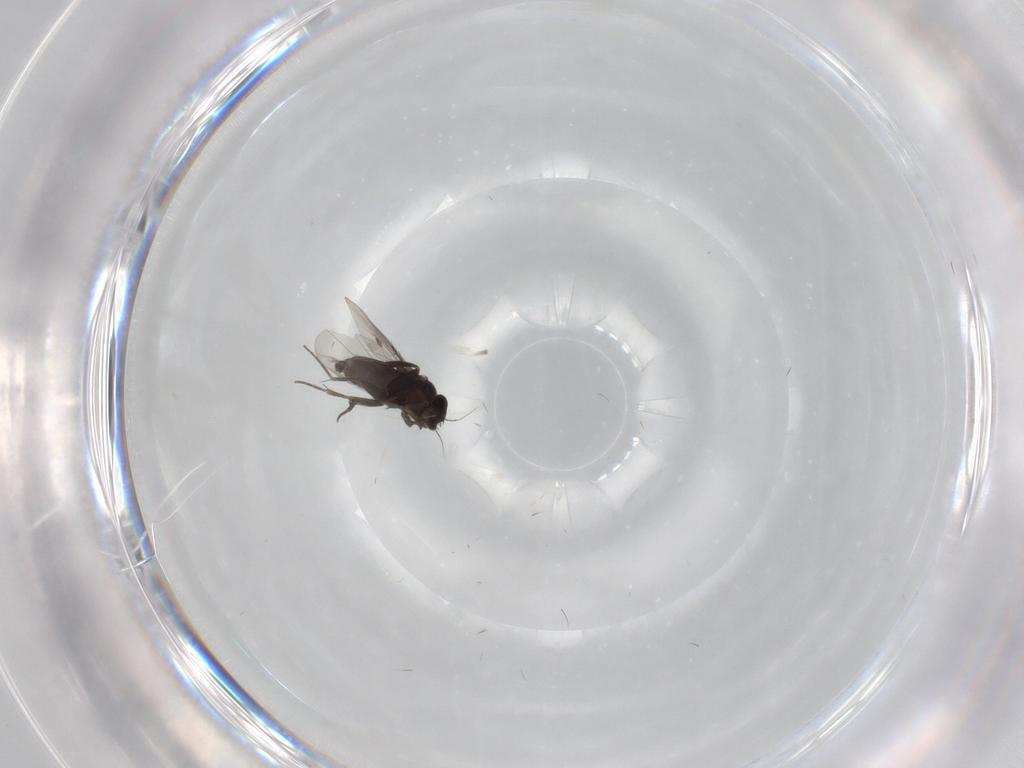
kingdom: Animalia
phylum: Arthropoda
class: Insecta
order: Diptera
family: Phoridae
